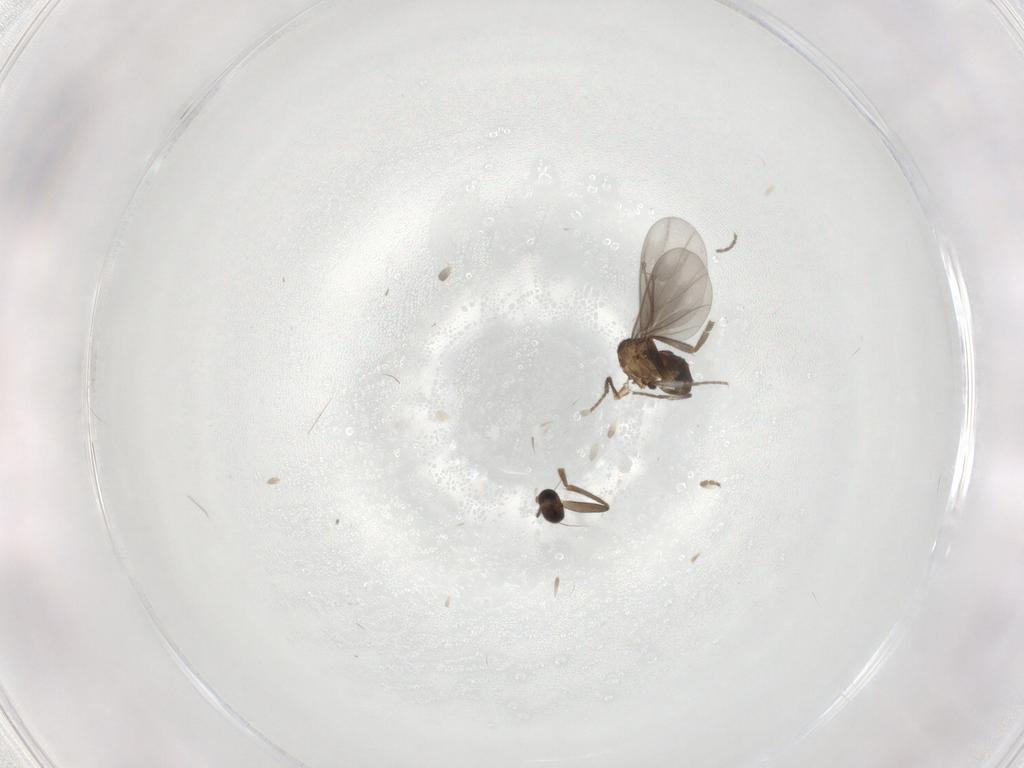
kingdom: Animalia
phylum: Arthropoda
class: Insecta
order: Diptera
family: Phoridae
